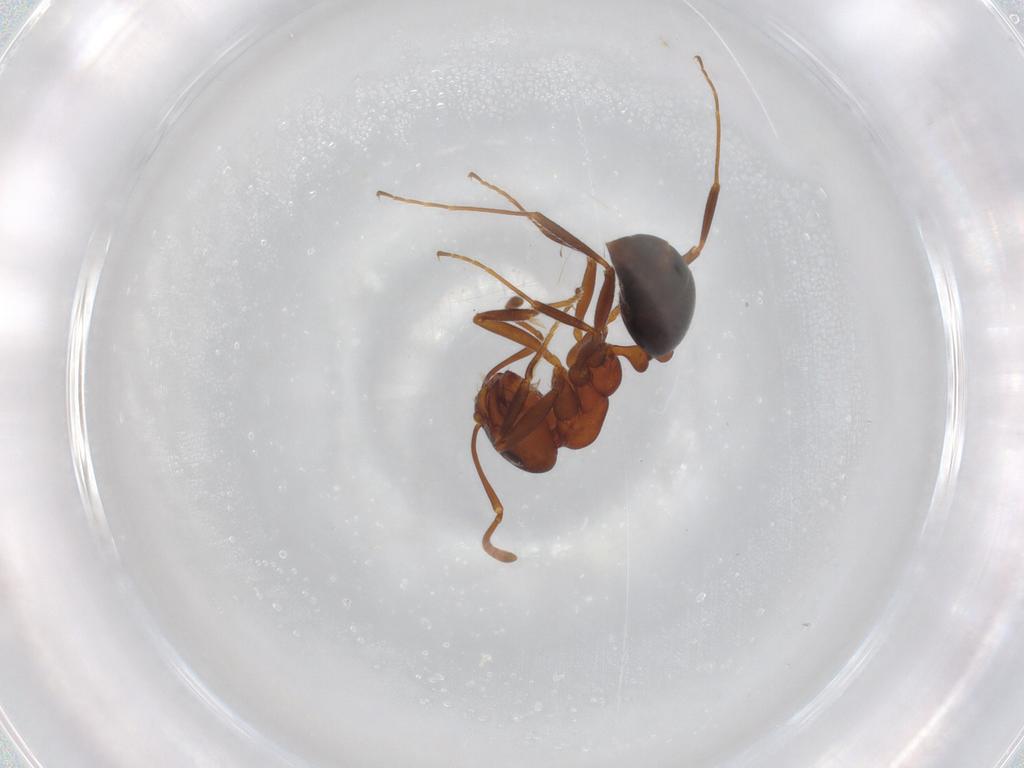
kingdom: Animalia
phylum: Arthropoda
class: Insecta
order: Hymenoptera
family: Formicidae
